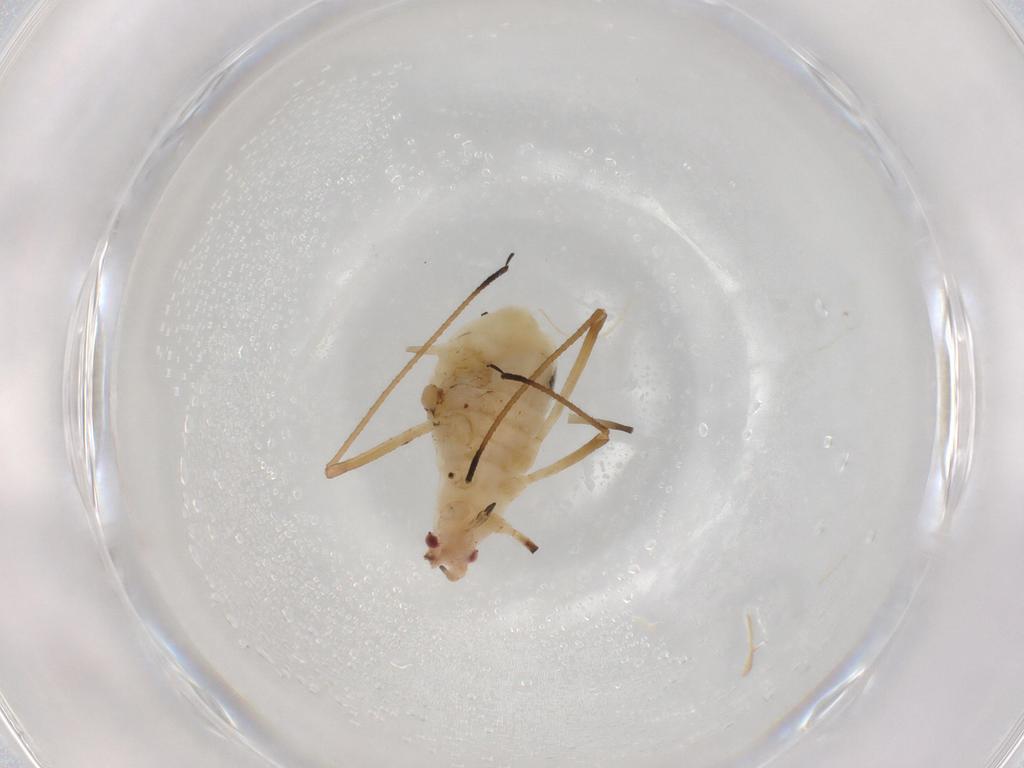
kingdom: Animalia
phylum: Arthropoda
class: Insecta
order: Hemiptera
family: Aphididae
